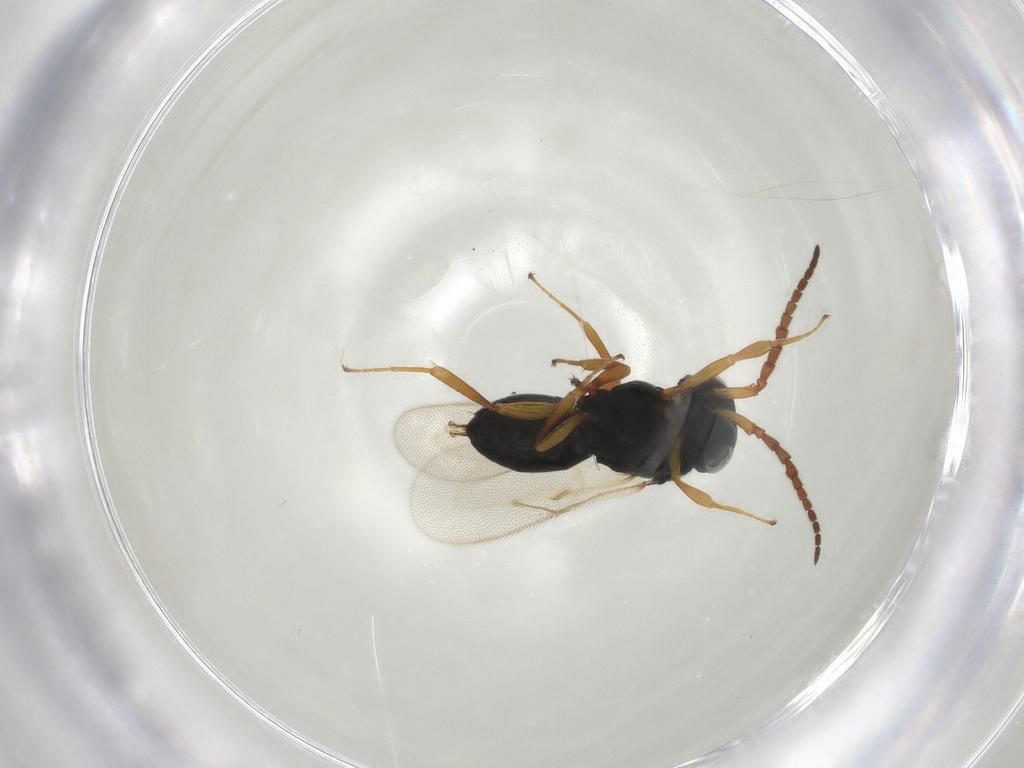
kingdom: Animalia
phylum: Arthropoda
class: Insecta
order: Hymenoptera
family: Scelionidae
